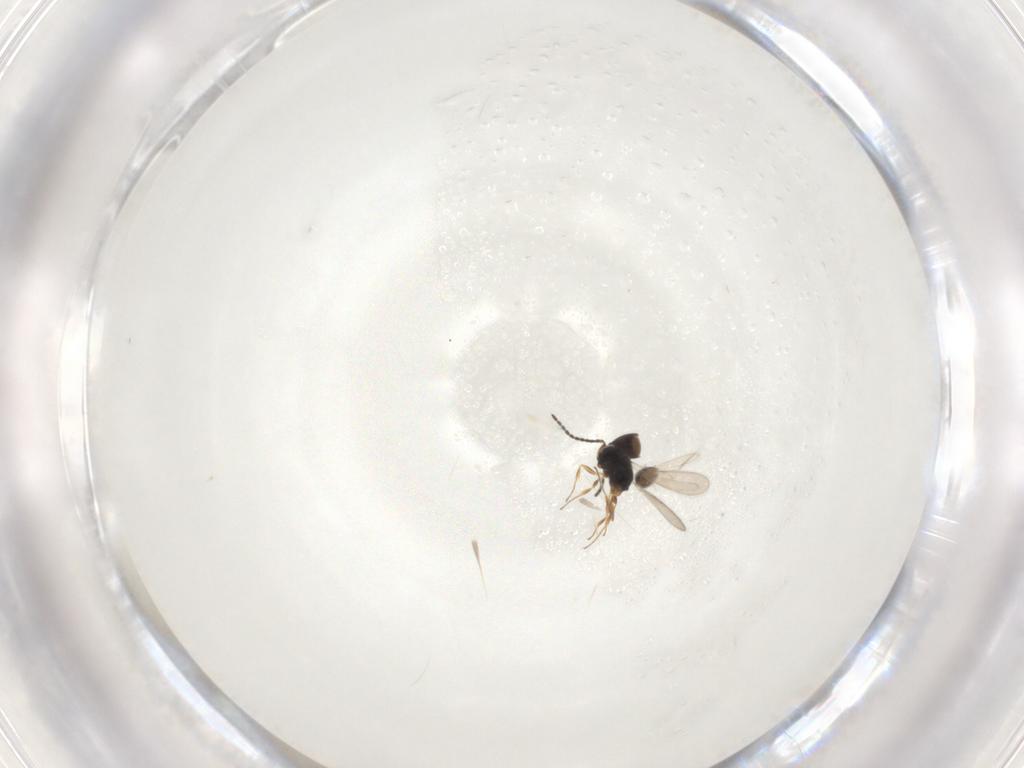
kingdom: Animalia
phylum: Arthropoda
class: Insecta
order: Hymenoptera
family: Scelionidae
